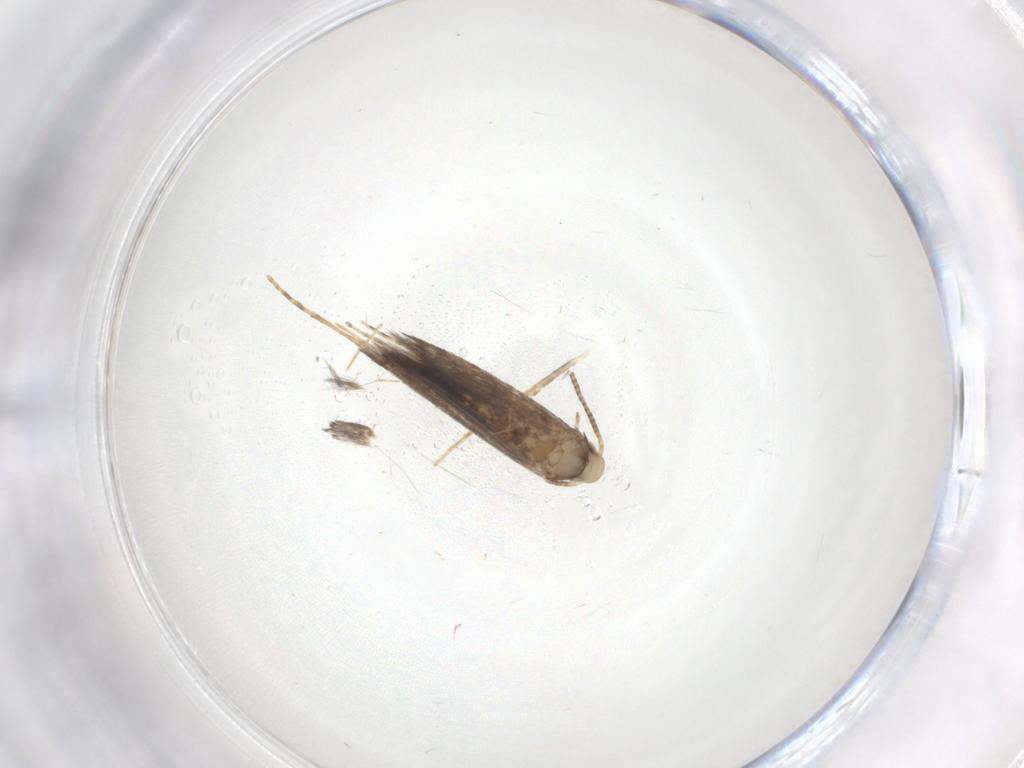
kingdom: Animalia
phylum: Arthropoda
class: Insecta
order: Lepidoptera
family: Gracillariidae
